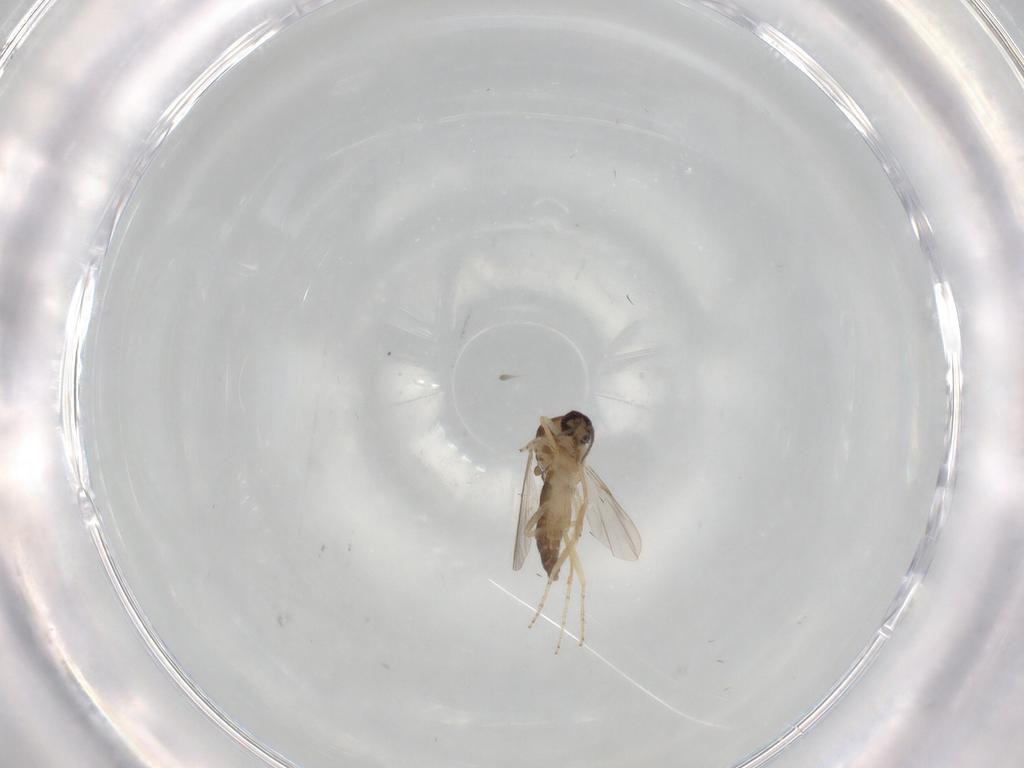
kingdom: Animalia
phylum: Arthropoda
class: Insecta
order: Diptera
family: Ceratopogonidae
